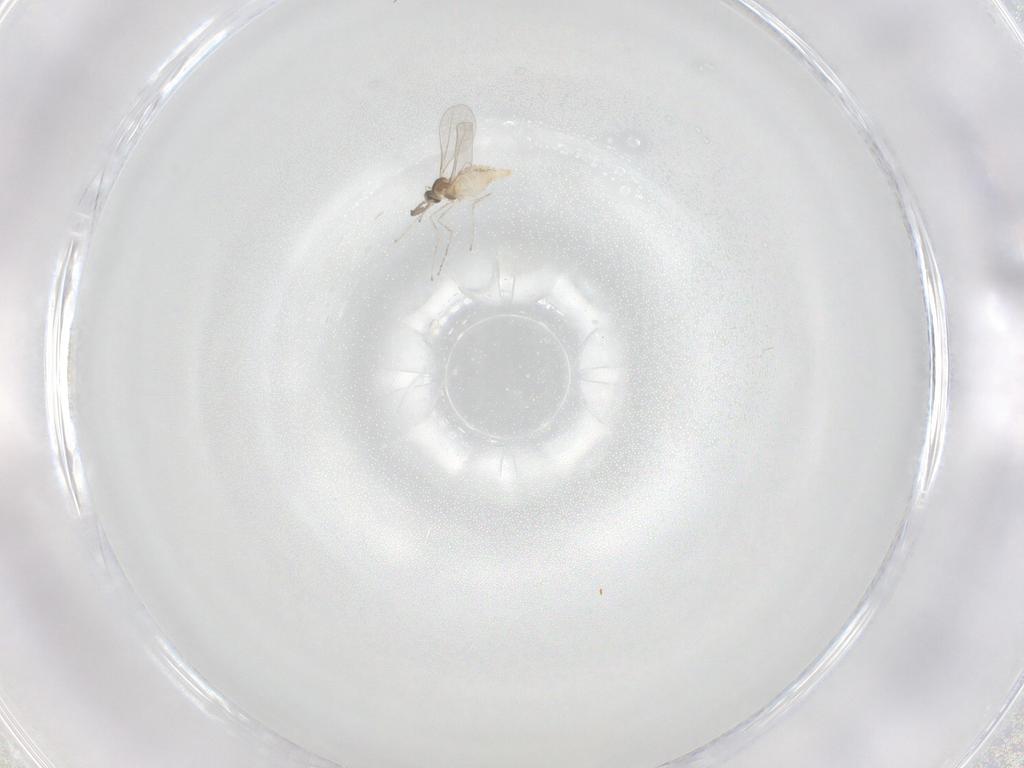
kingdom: Animalia
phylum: Arthropoda
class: Insecta
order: Diptera
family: Cecidomyiidae
